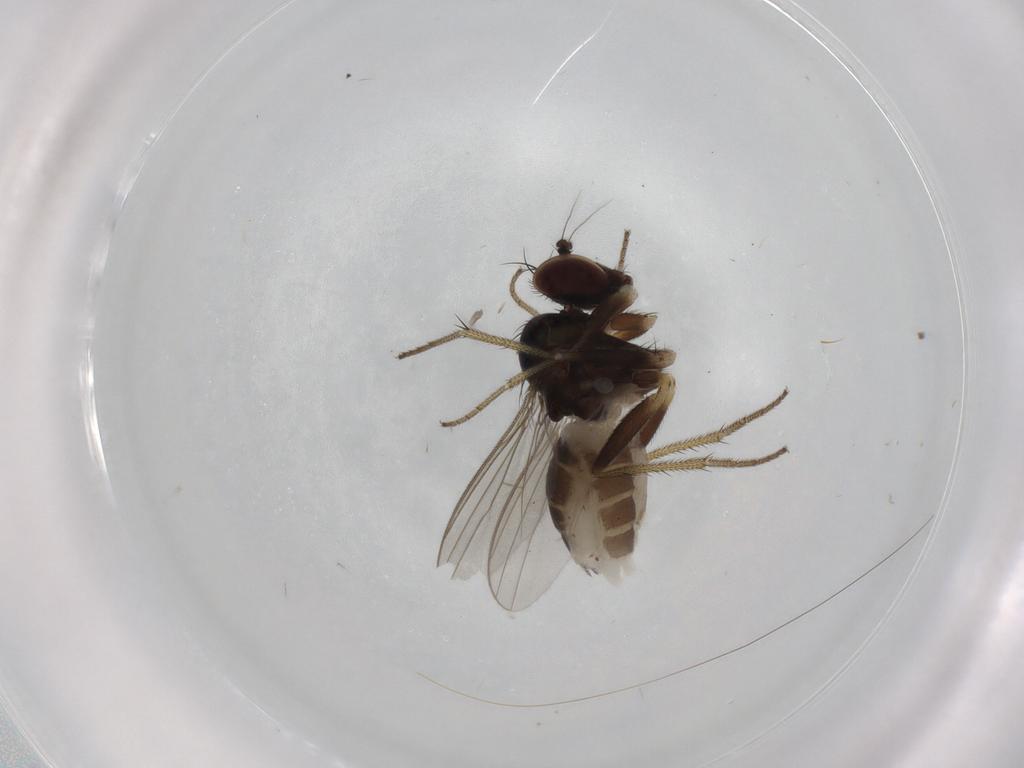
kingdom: Animalia
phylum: Arthropoda
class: Insecta
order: Diptera
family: Dolichopodidae
